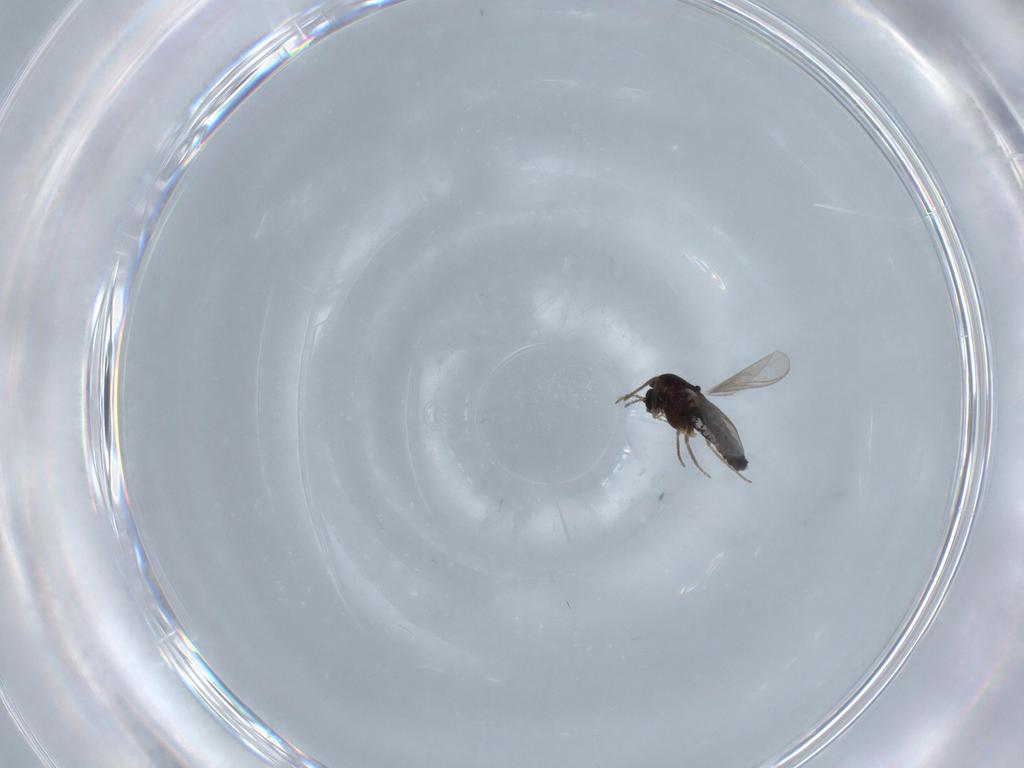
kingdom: Animalia
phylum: Arthropoda
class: Insecta
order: Diptera
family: Chironomidae
